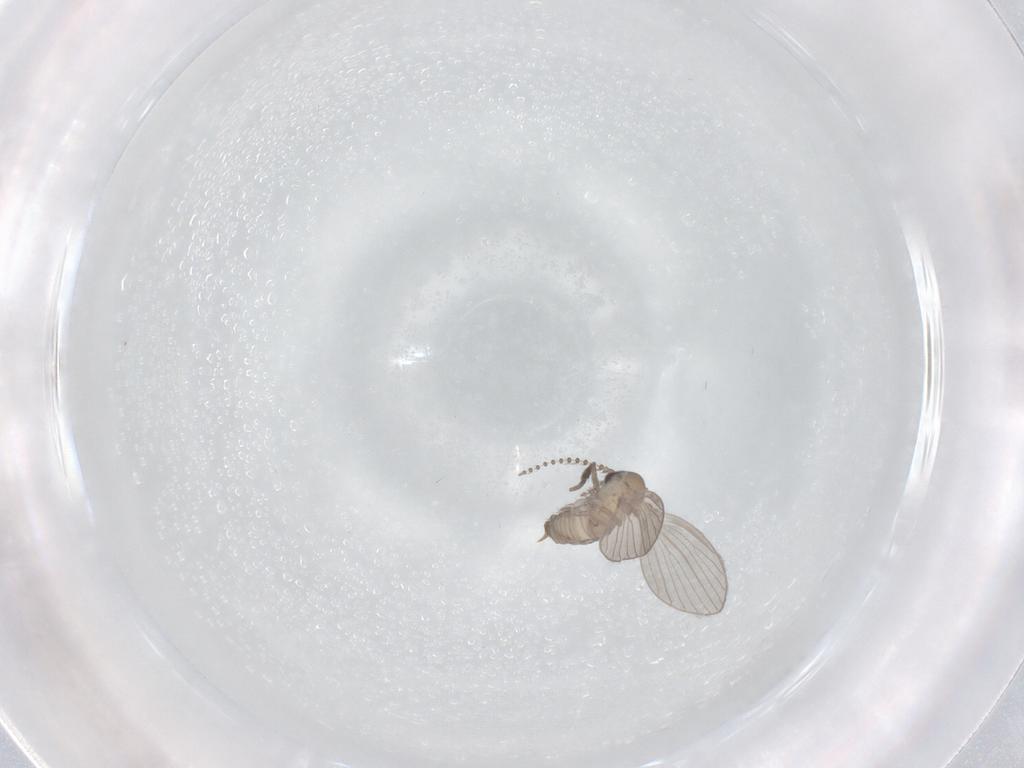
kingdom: Animalia
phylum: Arthropoda
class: Insecta
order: Diptera
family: Cecidomyiidae
